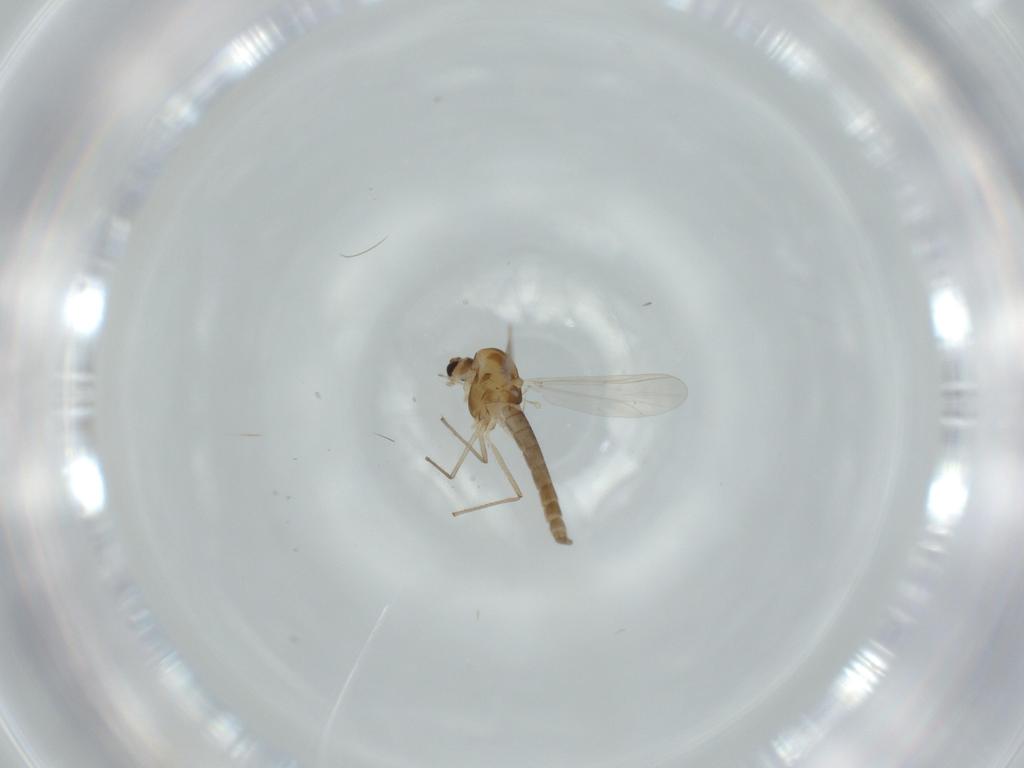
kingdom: Animalia
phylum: Arthropoda
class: Insecta
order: Diptera
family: Chironomidae
